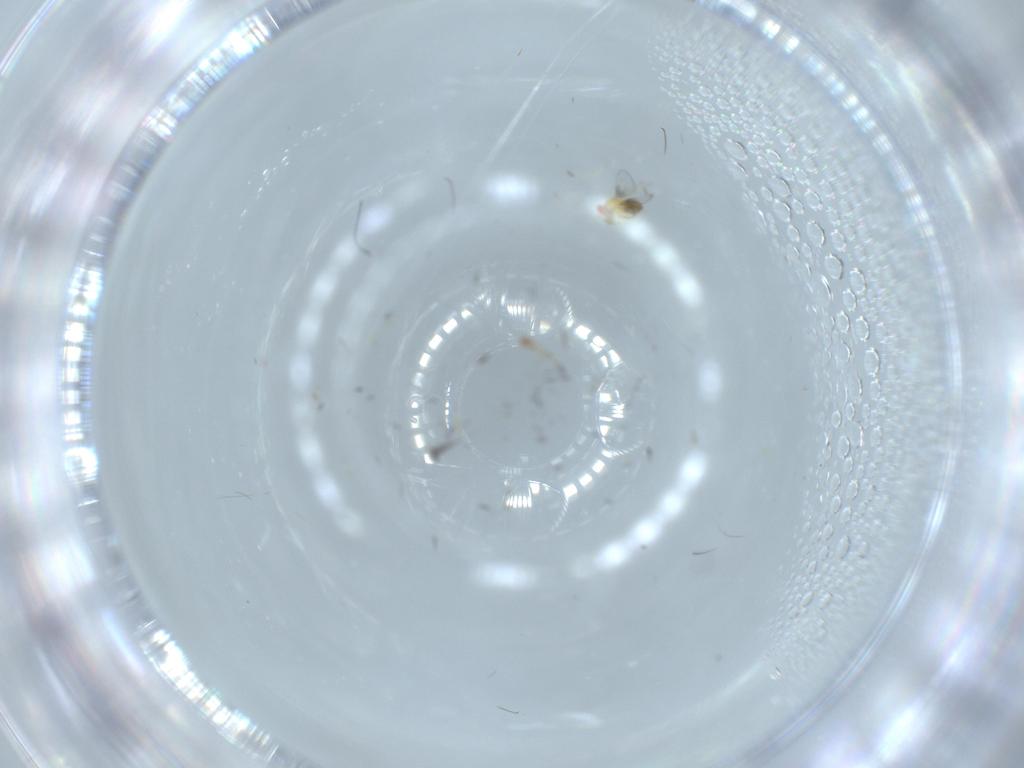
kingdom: Animalia
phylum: Arthropoda
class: Insecta
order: Hymenoptera
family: Trichogrammatidae
